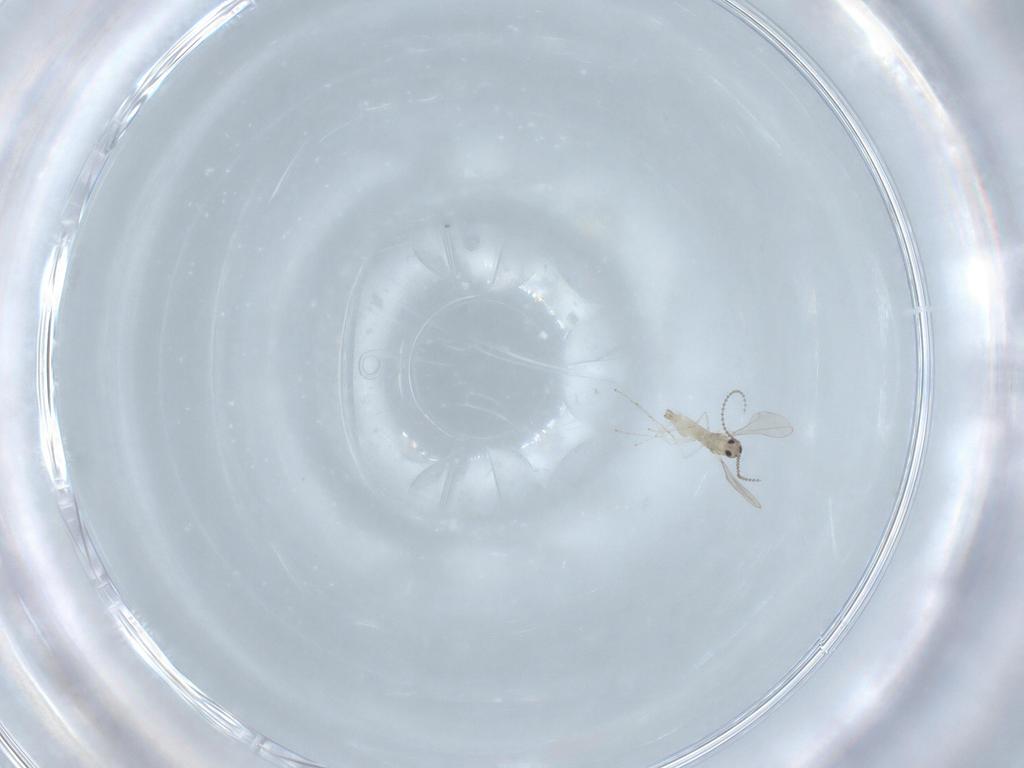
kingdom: Animalia
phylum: Arthropoda
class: Insecta
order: Diptera
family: Cecidomyiidae
